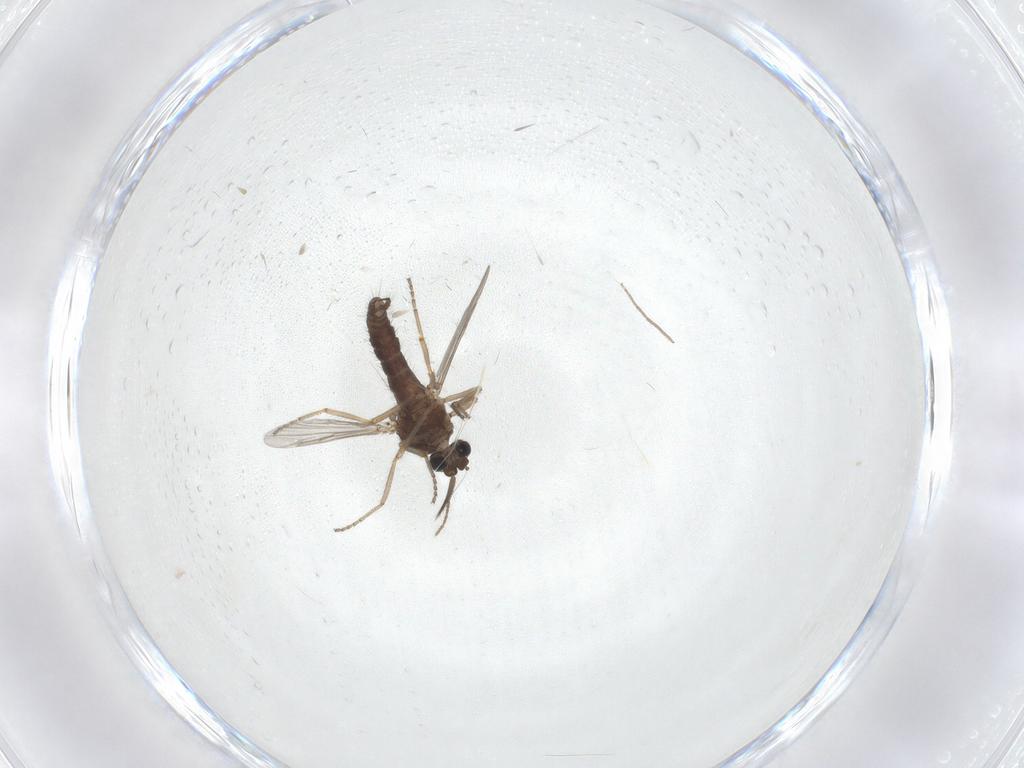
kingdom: Animalia
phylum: Arthropoda
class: Insecta
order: Diptera
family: Ceratopogonidae
